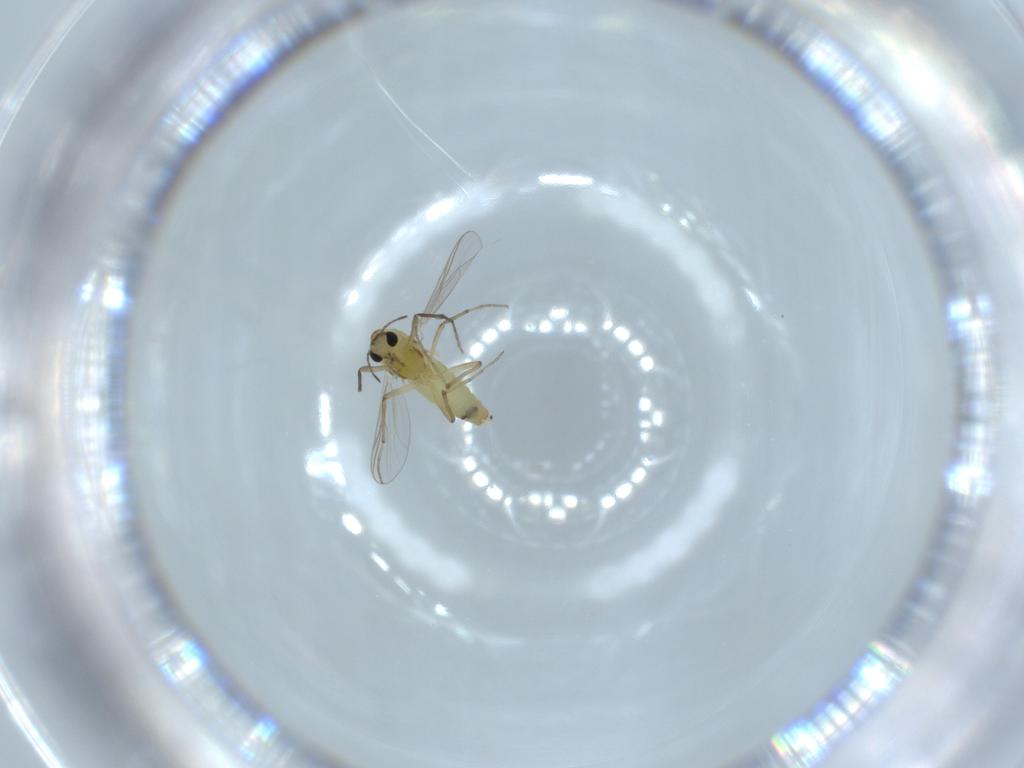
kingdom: Animalia
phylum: Arthropoda
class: Insecta
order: Diptera
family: Chironomidae
